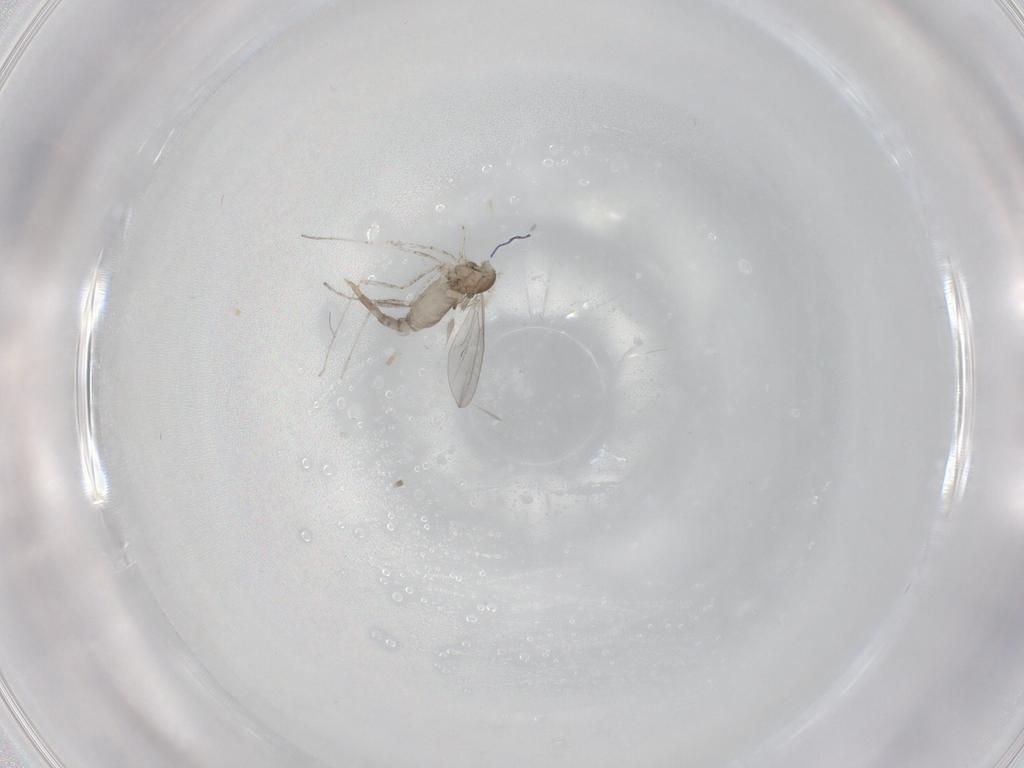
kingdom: Animalia
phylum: Arthropoda
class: Insecta
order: Diptera
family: Cecidomyiidae
